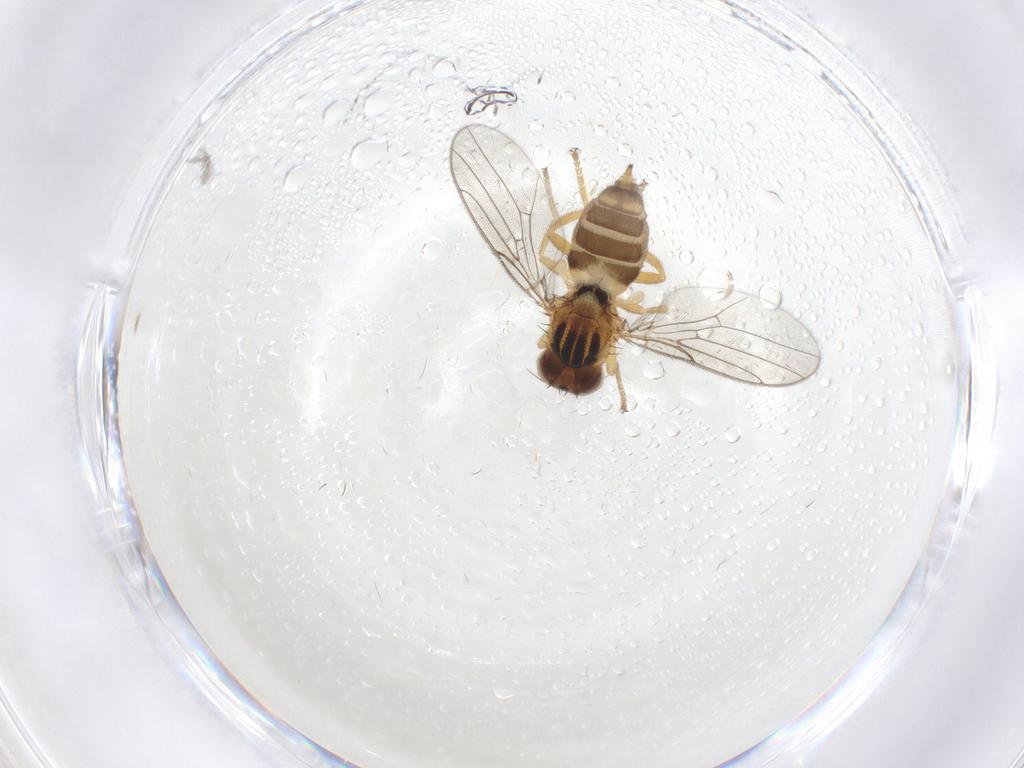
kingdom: Animalia
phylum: Arthropoda
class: Insecta
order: Diptera
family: Chloropidae
